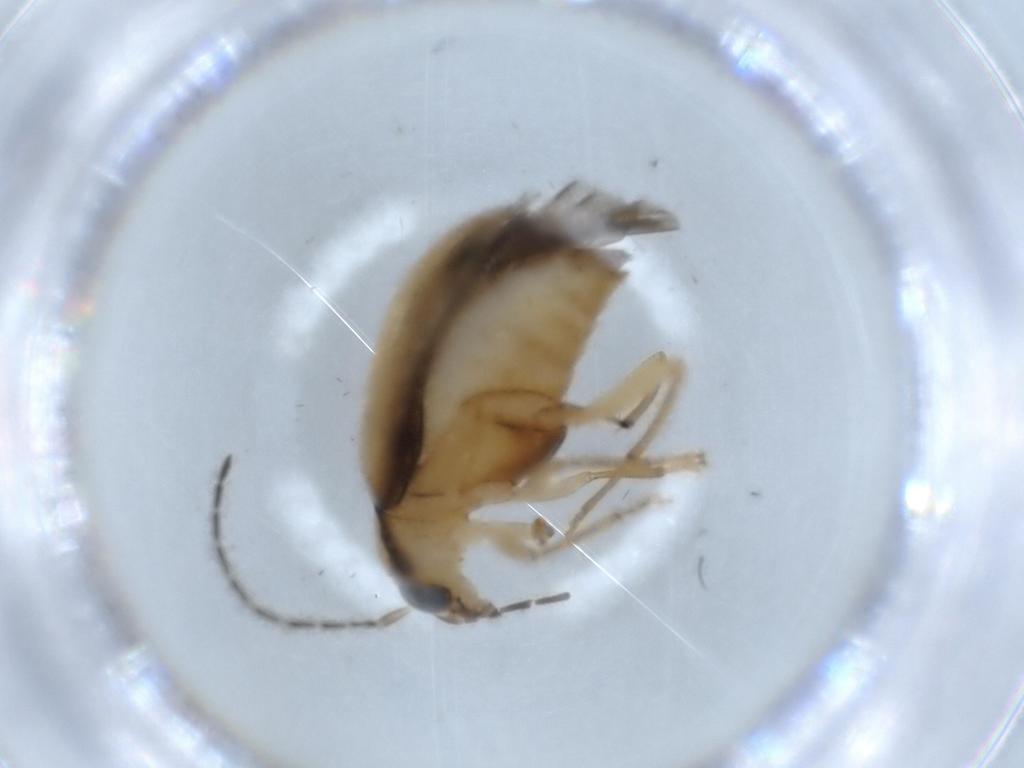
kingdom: Animalia
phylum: Arthropoda
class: Insecta
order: Coleoptera
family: Chrysomelidae
